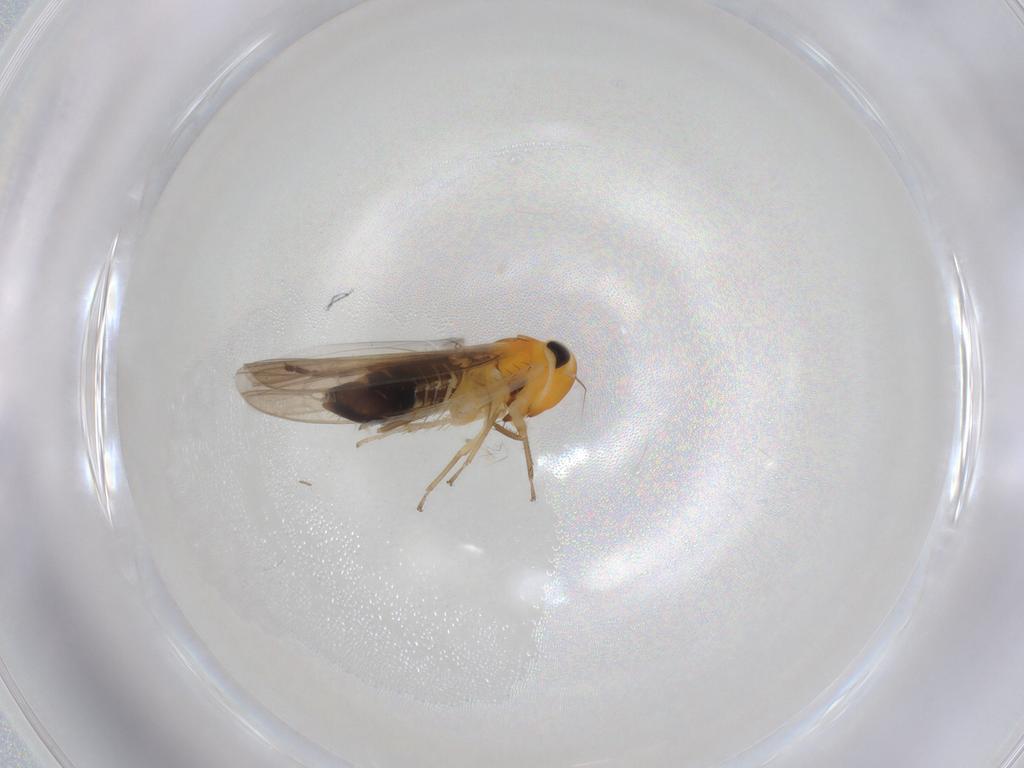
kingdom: Animalia
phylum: Arthropoda
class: Insecta
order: Hemiptera
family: Cicadellidae
